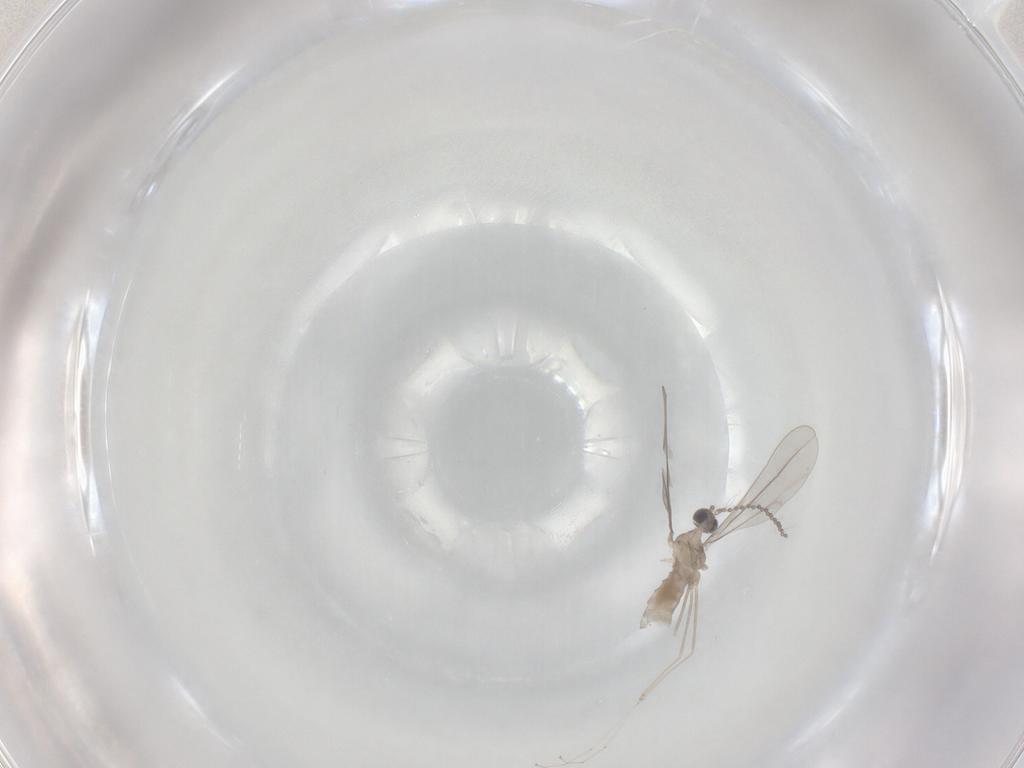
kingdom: Animalia
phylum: Arthropoda
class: Insecta
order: Diptera
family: Cecidomyiidae
